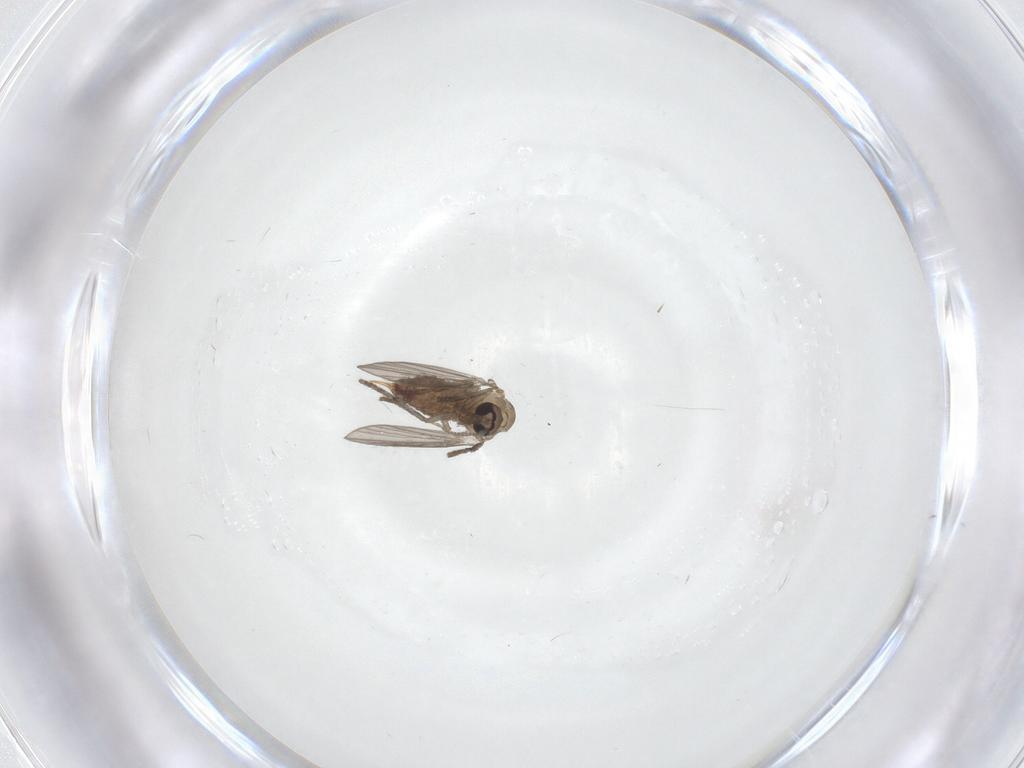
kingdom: Animalia
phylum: Arthropoda
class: Insecta
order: Diptera
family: Psychodidae
